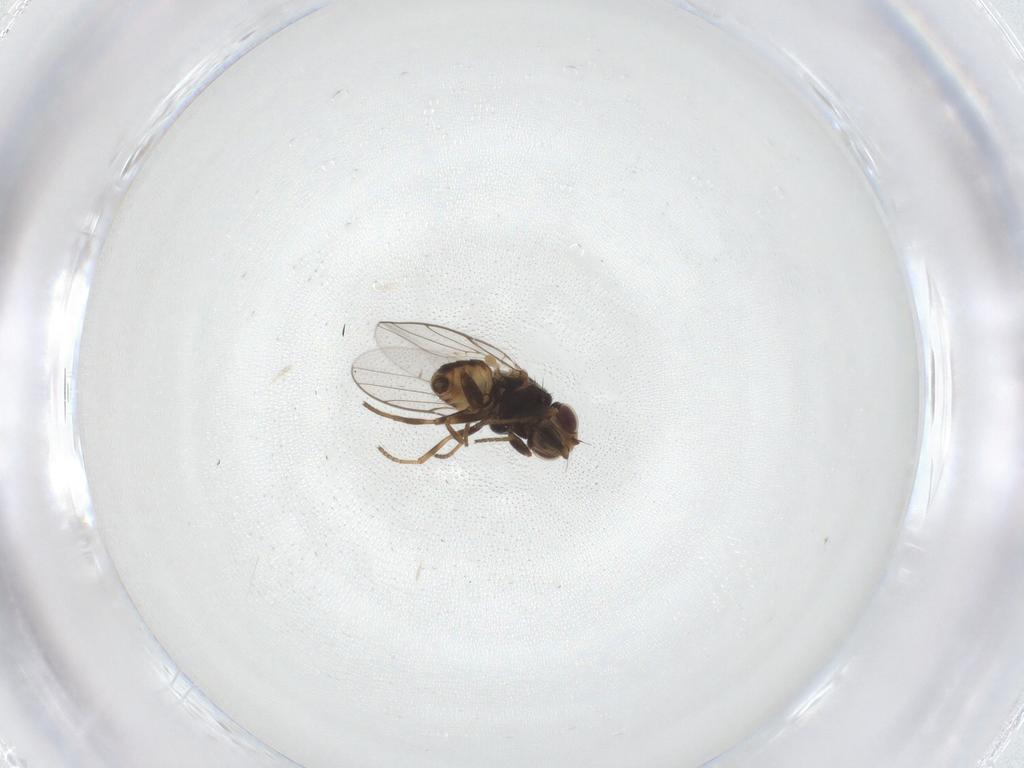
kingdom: Animalia
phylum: Arthropoda
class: Insecta
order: Diptera
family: Chloropidae
